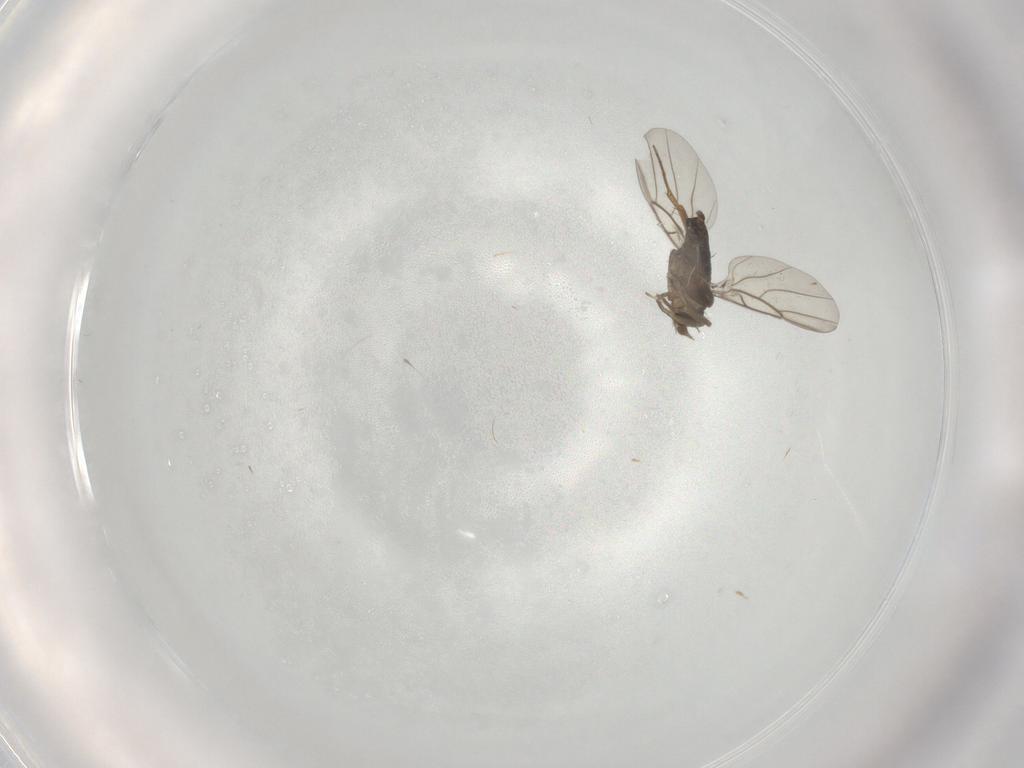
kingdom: Animalia
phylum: Arthropoda
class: Insecta
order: Diptera
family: Phoridae
